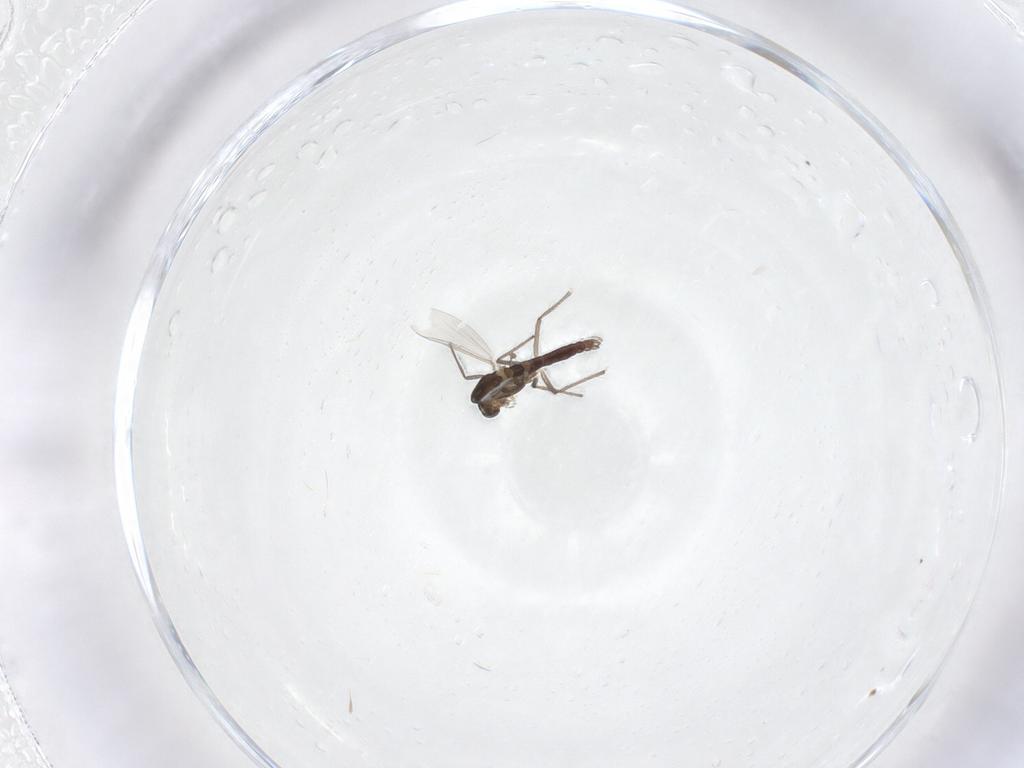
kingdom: Animalia
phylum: Arthropoda
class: Insecta
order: Diptera
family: Chironomidae
